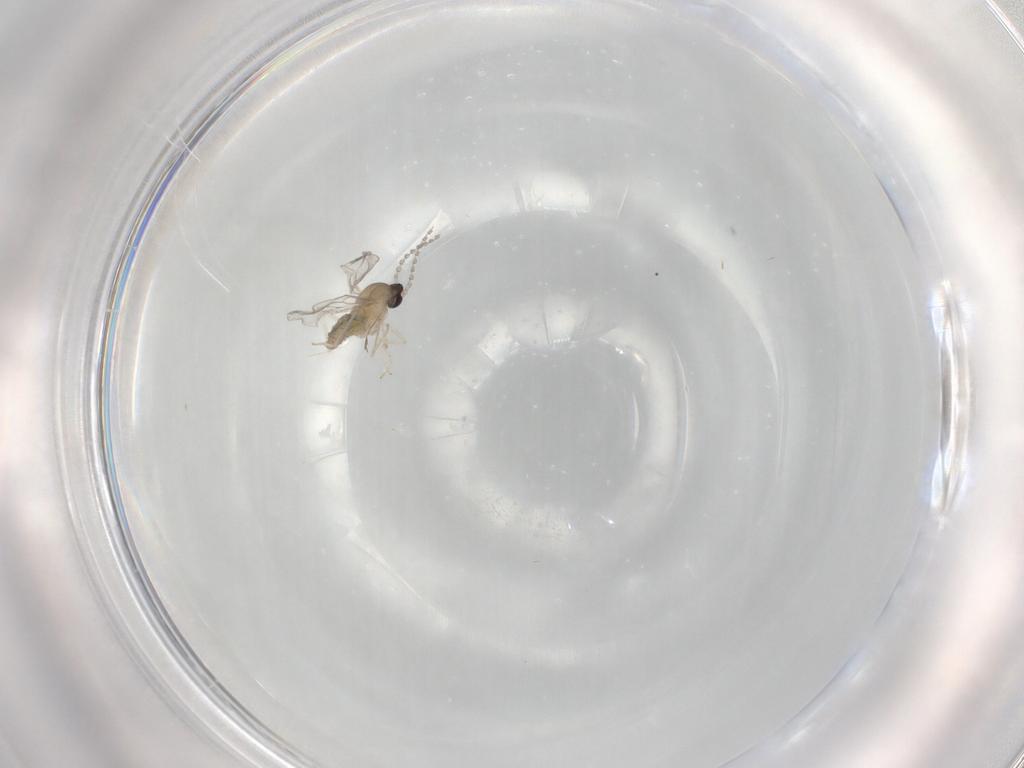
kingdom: Animalia
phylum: Arthropoda
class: Insecta
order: Diptera
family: Cecidomyiidae
